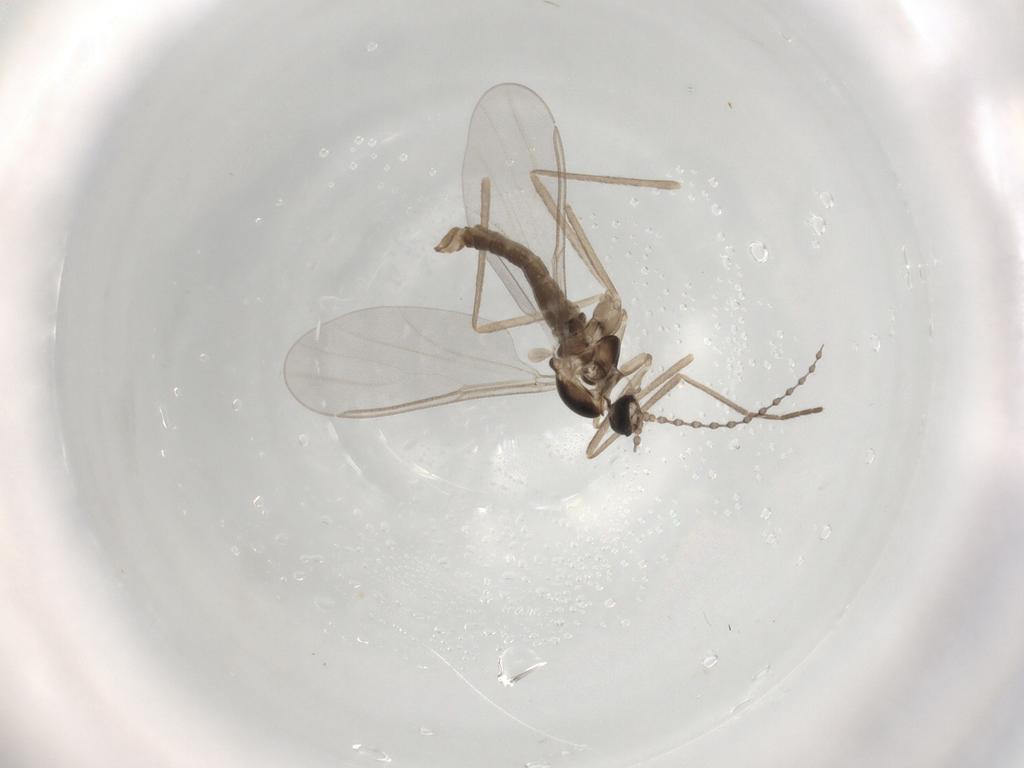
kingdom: Animalia
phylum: Arthropoda
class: Insecta
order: Diptera
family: Cecidomyiidae
